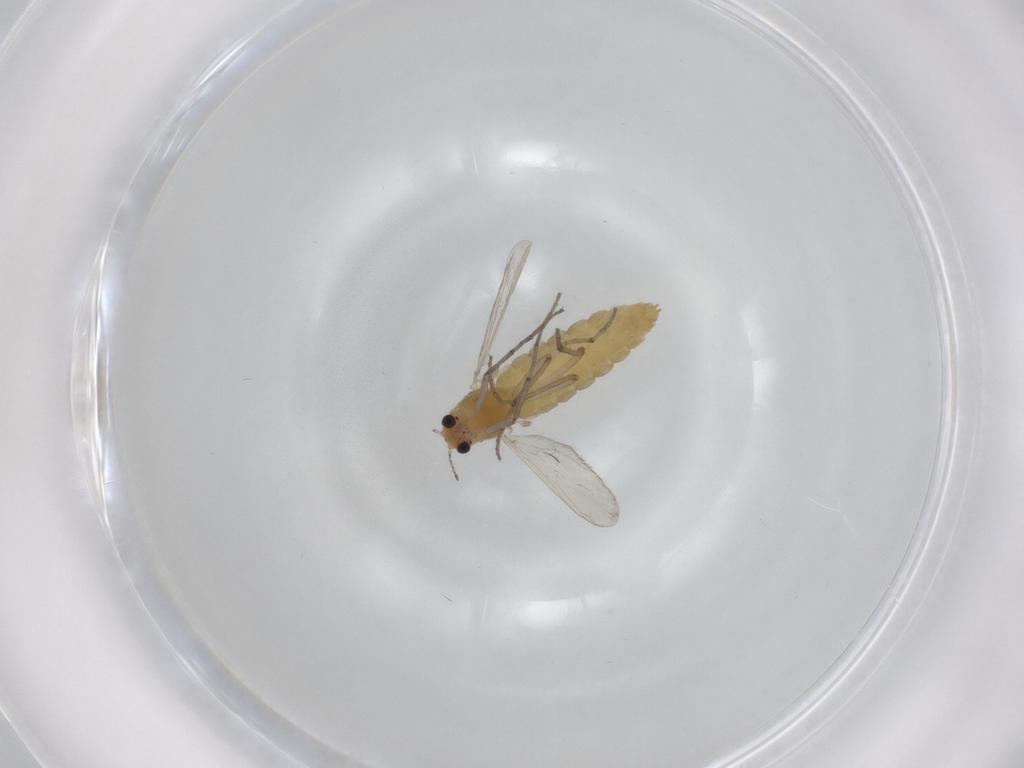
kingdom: Animalia
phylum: Arthropoda
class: Insecta
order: Diptera
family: Chironomidae
